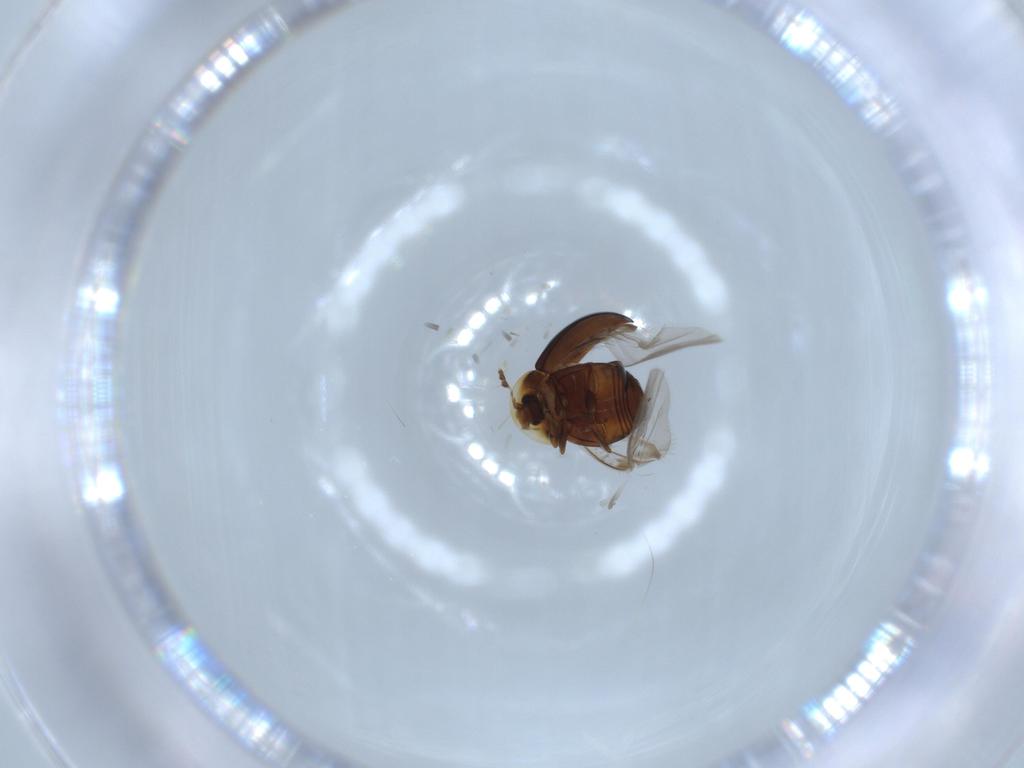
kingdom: Animalia
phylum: Arthropoda
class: Insecta
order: Coleoptera
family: Corylophidae
